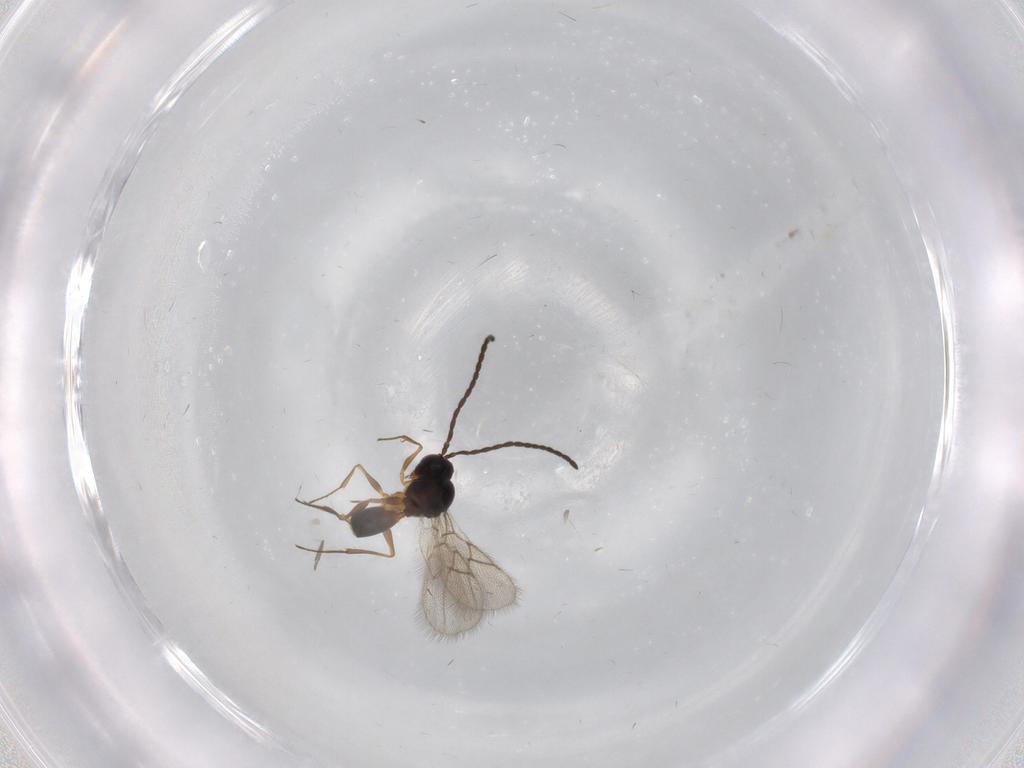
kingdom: Animalia
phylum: Arthropoda
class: Insecta
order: Hymenoptera
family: Figitidae
